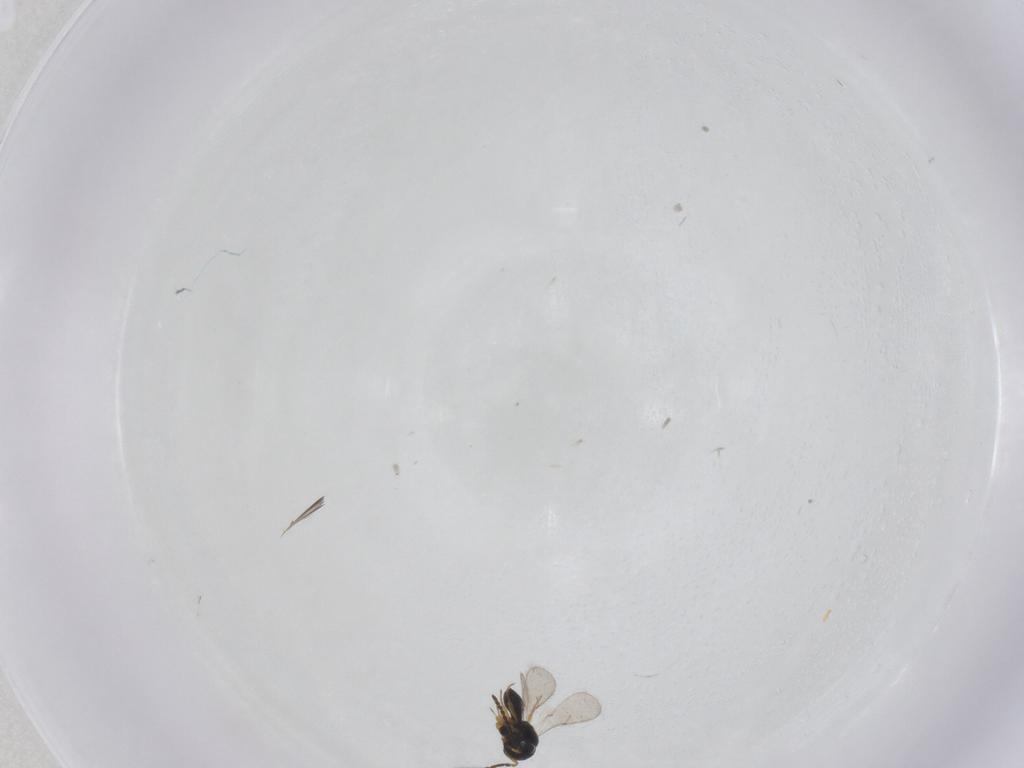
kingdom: Animalia
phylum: Arthropoda
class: Insecta
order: Hymenoptera
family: Scelionidae
